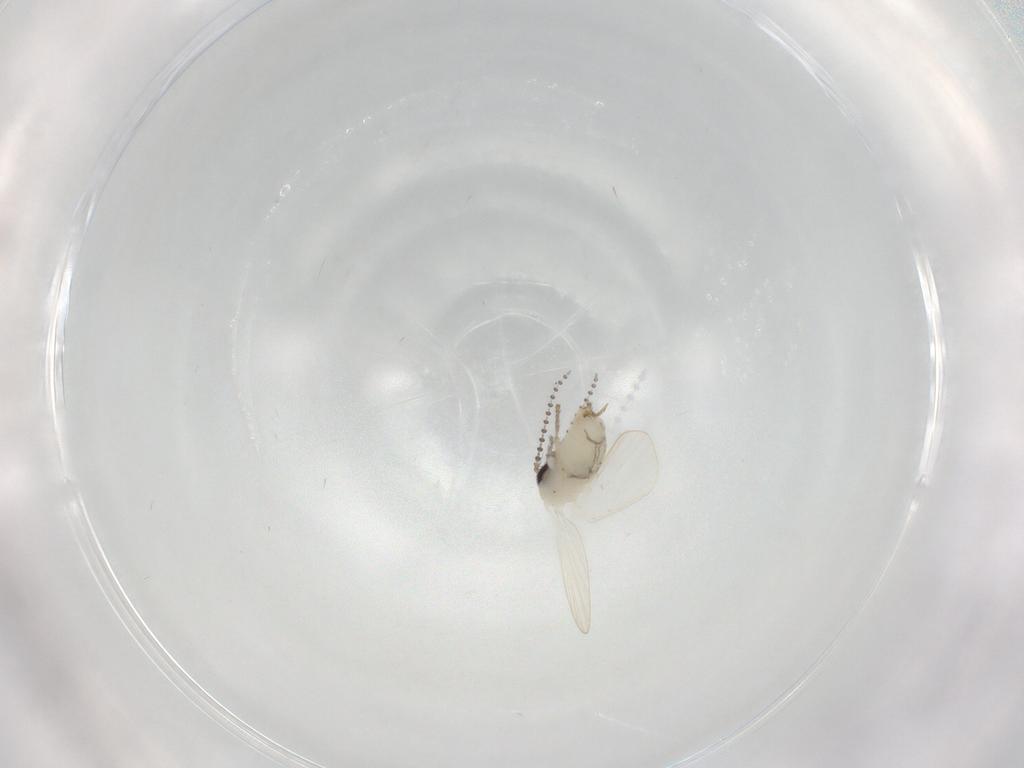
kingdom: Animalia
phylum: Arthropoda
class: Insecta
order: Diptera
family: Psychodidae
